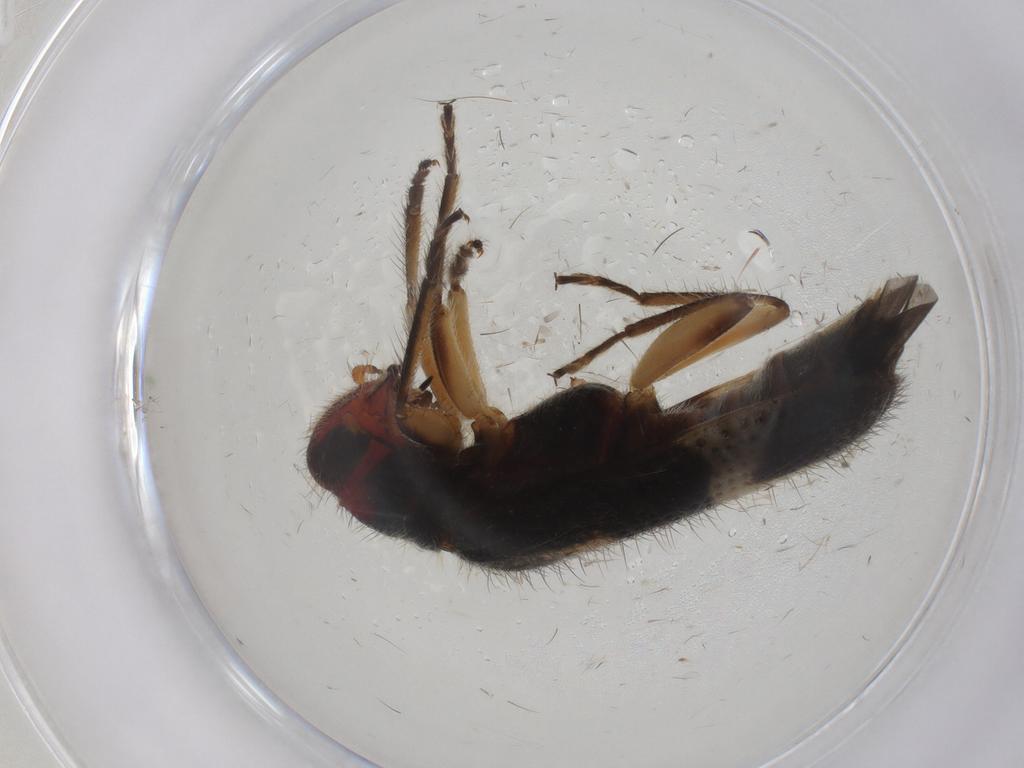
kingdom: Animalia
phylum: Arthropoda
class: Insecta
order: Coleoptera
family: Cleridae
